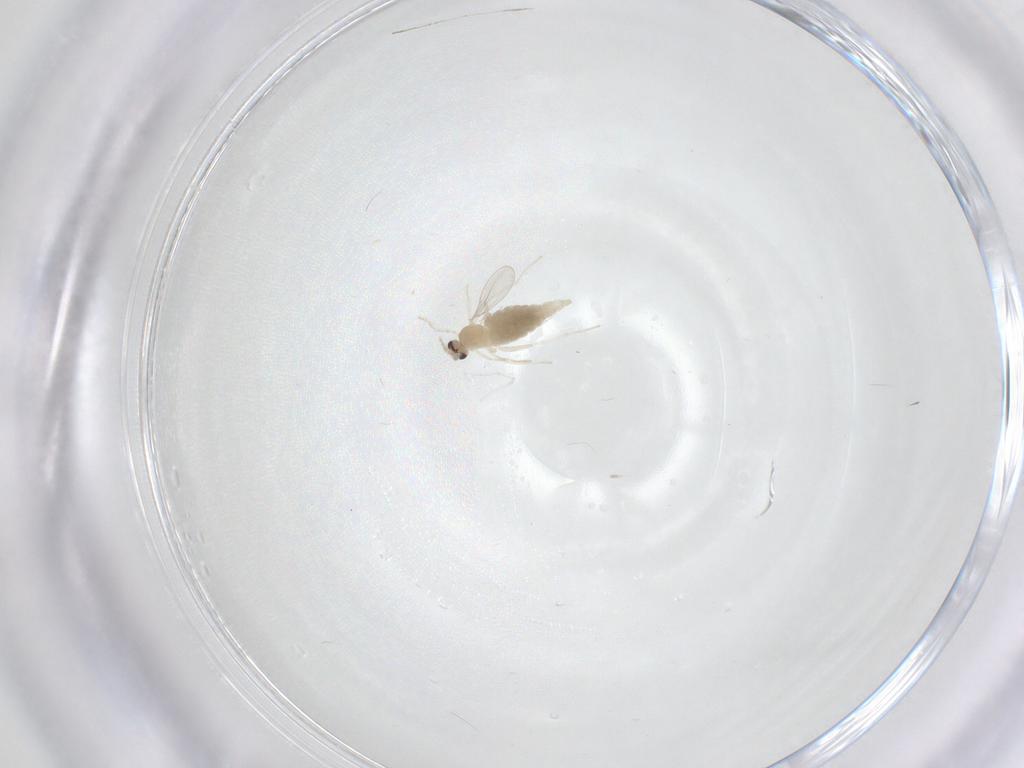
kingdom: Animalia
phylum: Arthropoda
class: Insecta
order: Diptera
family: Cecidomyiidae
